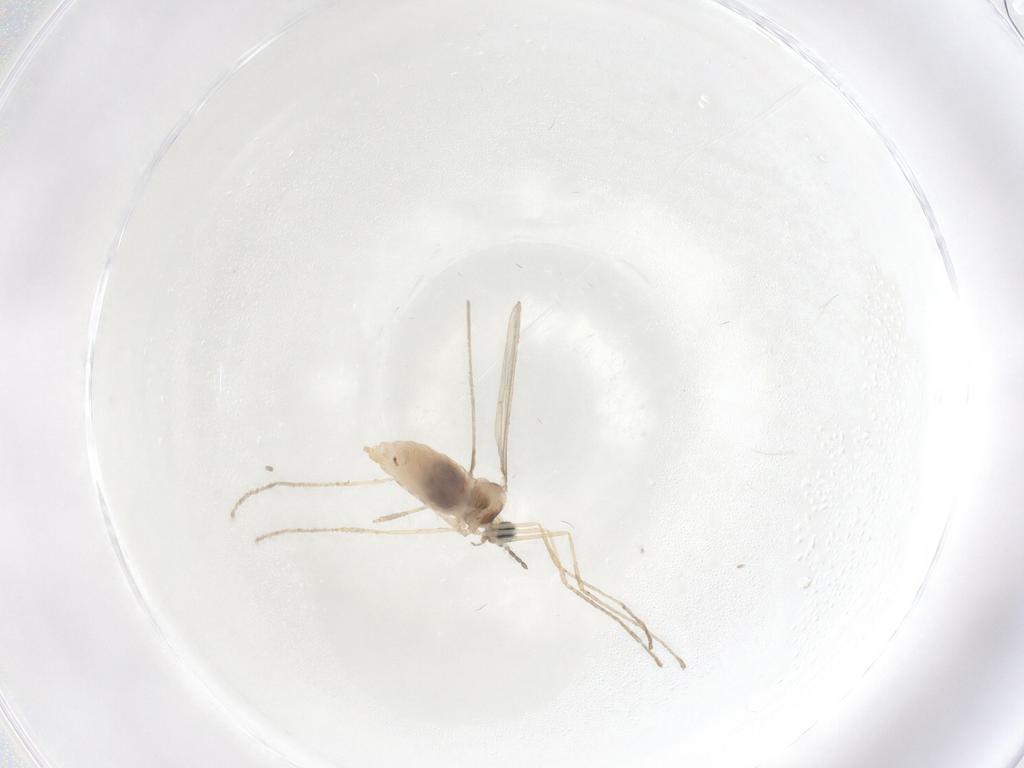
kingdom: Animalia
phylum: Arthropoda
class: Insecta
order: Diptera
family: Cecidomyiidae
